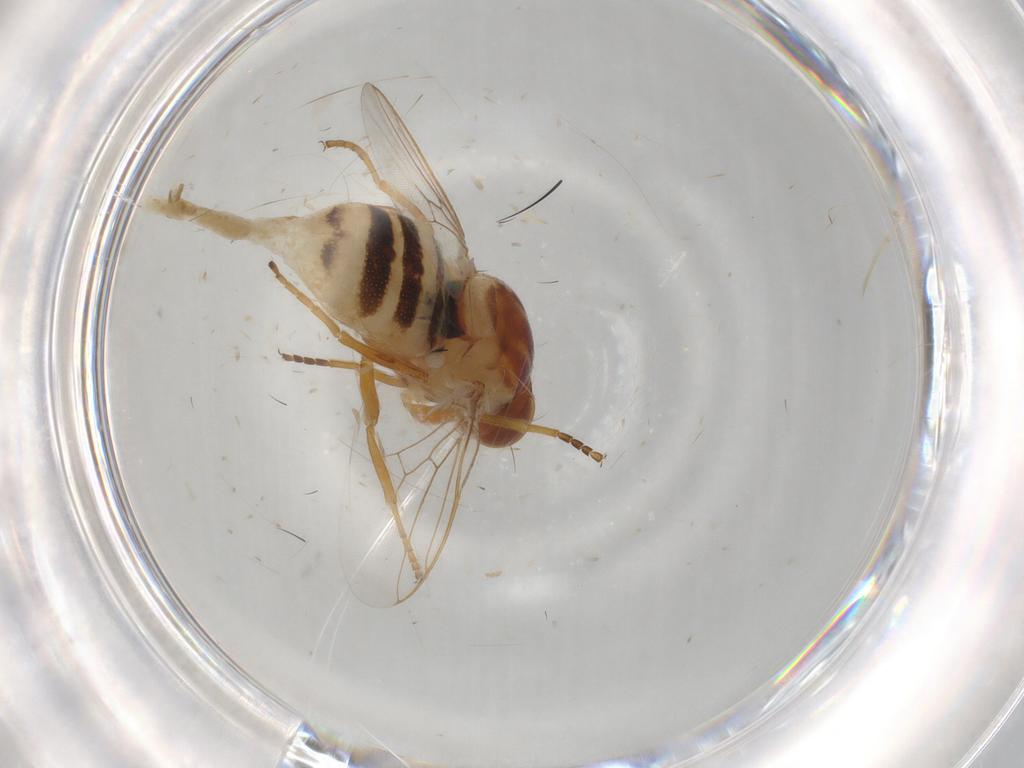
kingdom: Animalia
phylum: Arthropoda
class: Insecta
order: Diptera
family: Chloropidae
